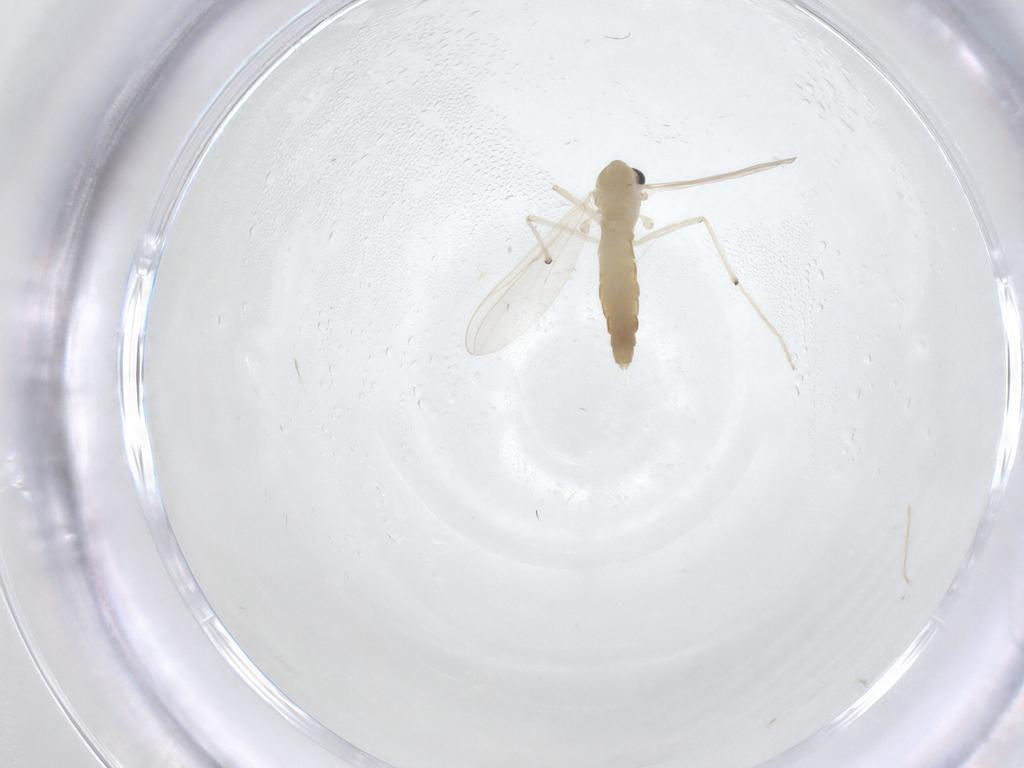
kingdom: Animalia
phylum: Arthropoda
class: Insecta
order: Diptera
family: Chironomidae
